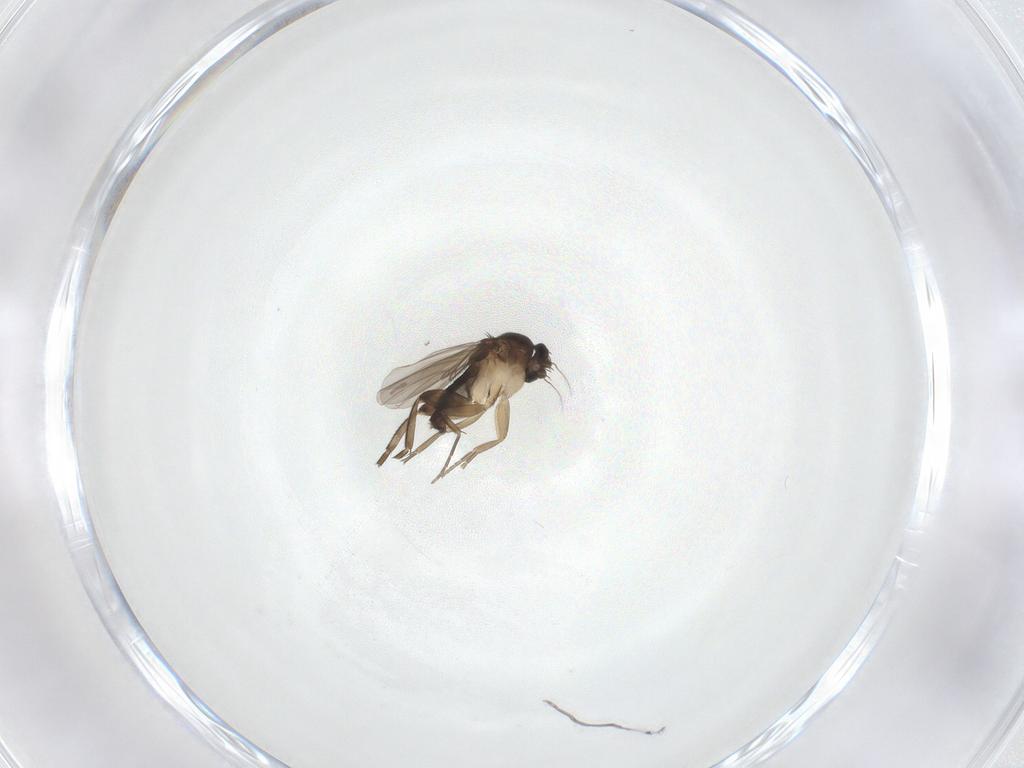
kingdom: Animalia
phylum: Arthropoda
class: Insecta
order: Diptera
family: Phoridae
